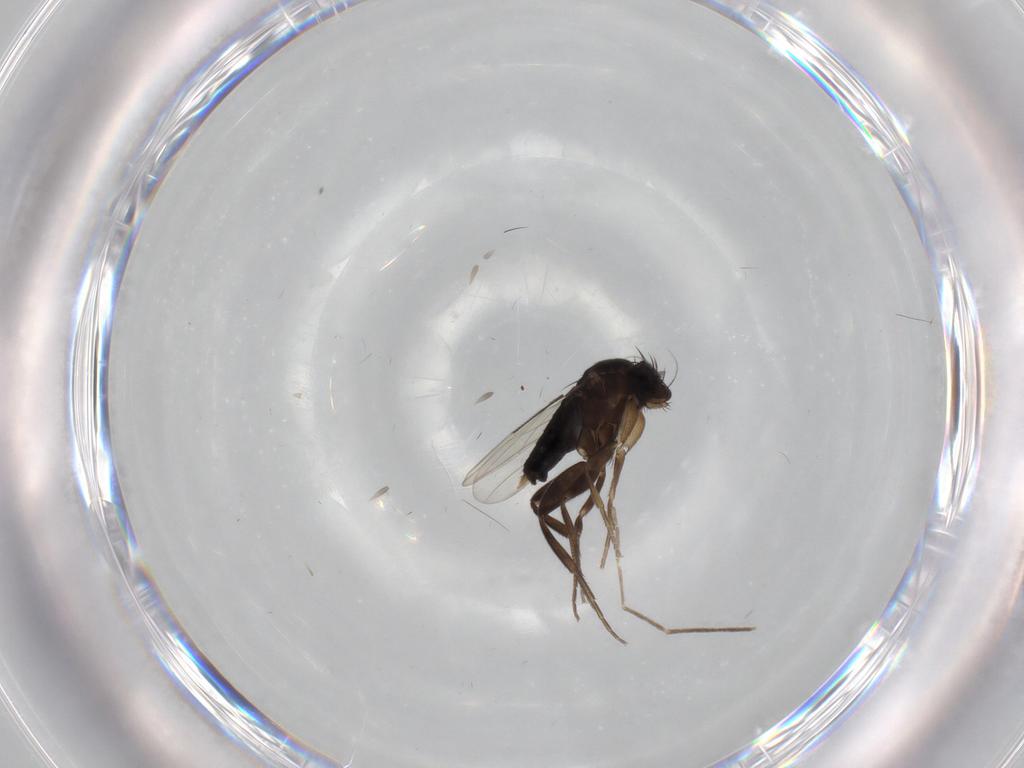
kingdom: Animalia
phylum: Arthropoda
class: Insecta
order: Diptera
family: Phoridae
